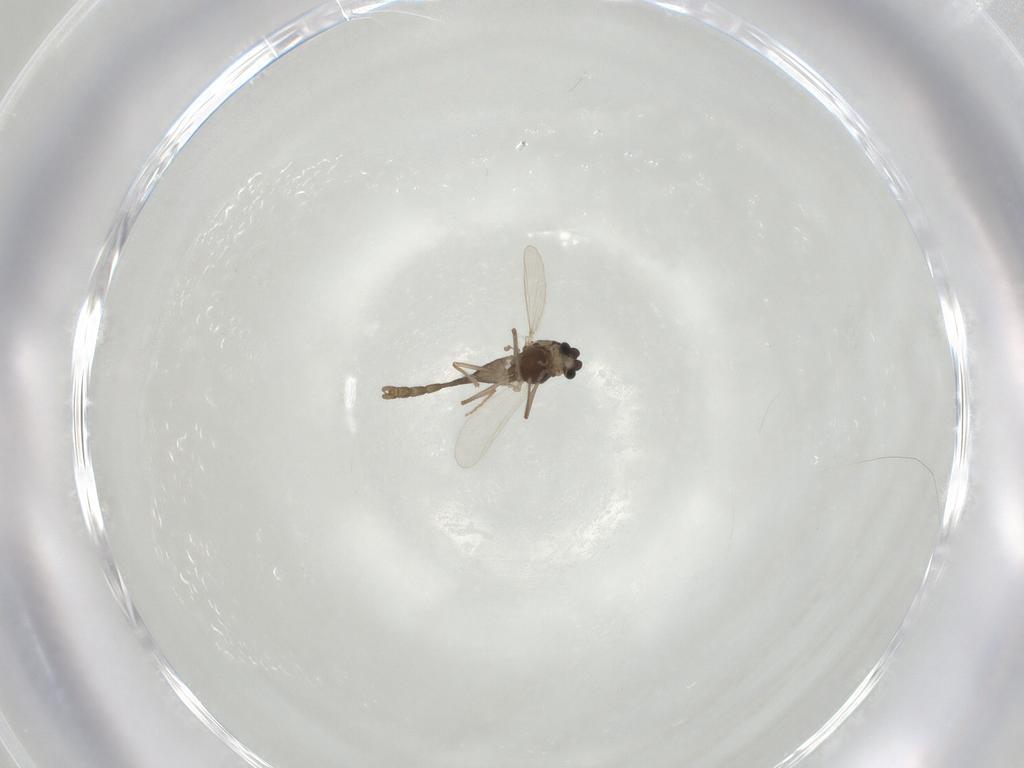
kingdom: Animalia
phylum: Arthropoda
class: Insecta
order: Diptera
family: Chironomidae
